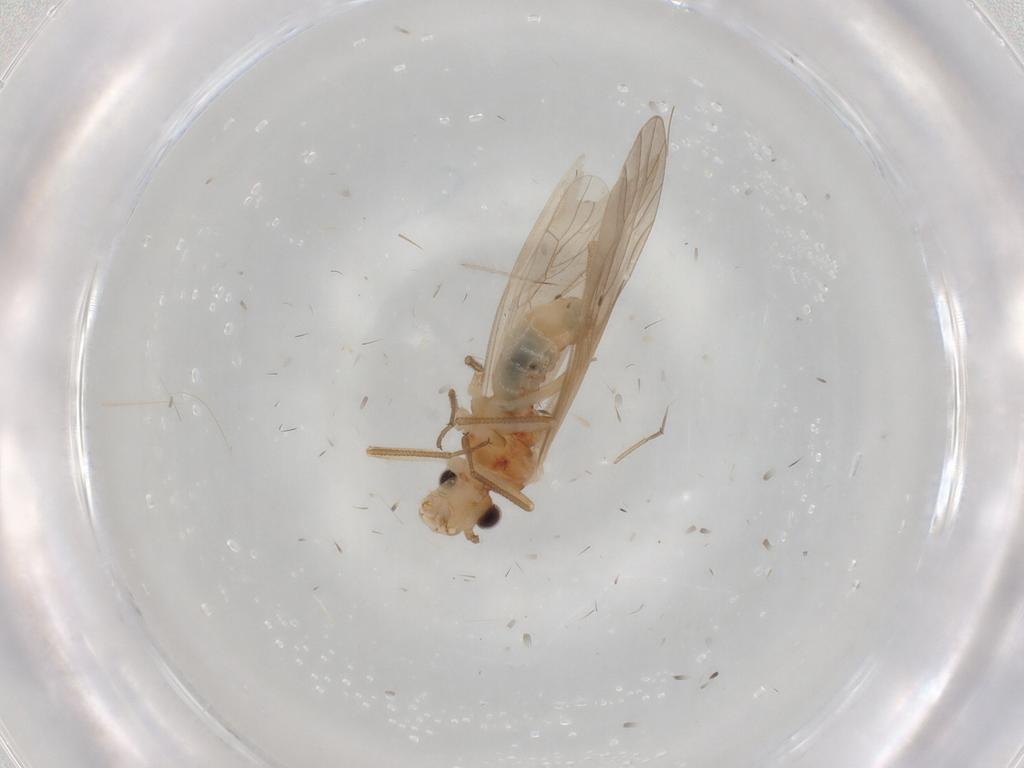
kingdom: Animalia
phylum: Arthropoda
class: Insecta
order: Psocodea
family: Caeciliusidae
